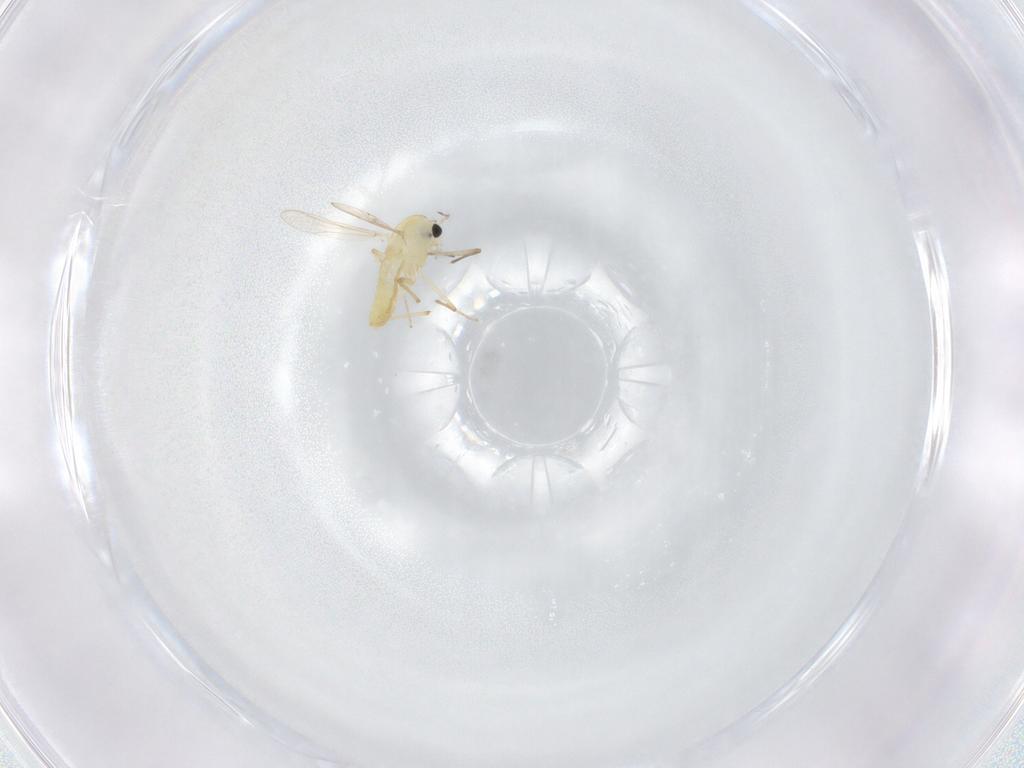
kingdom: Animalia
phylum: Arthropoda
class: Insecta
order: Diptera
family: Chironomidae
